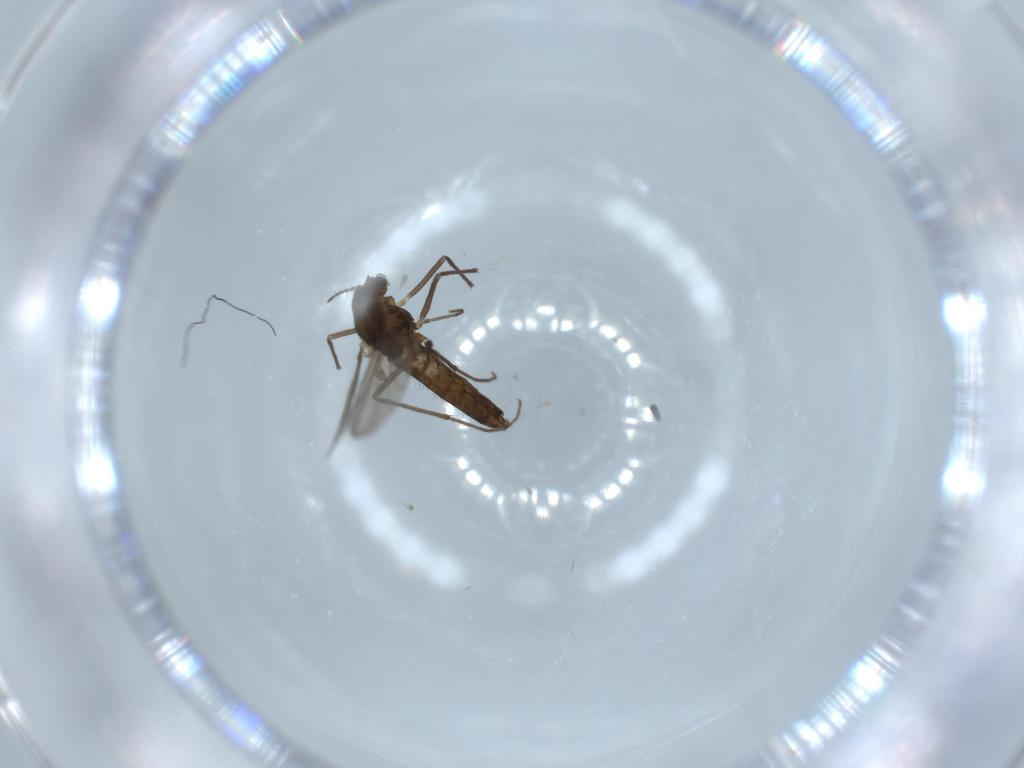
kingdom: Animalia
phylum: Arthropoda
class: Insecta
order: Diptera
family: Chironomidae
